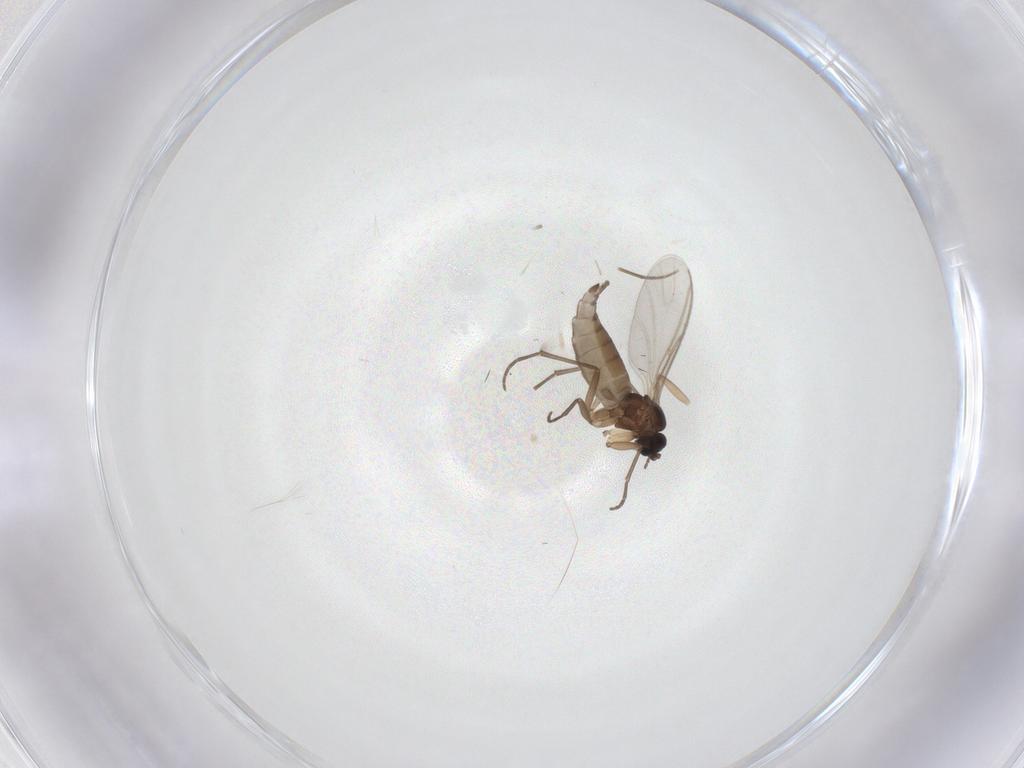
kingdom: Animalia
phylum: Arthropoda
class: Insecta
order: Diptera
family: Sciaridae
